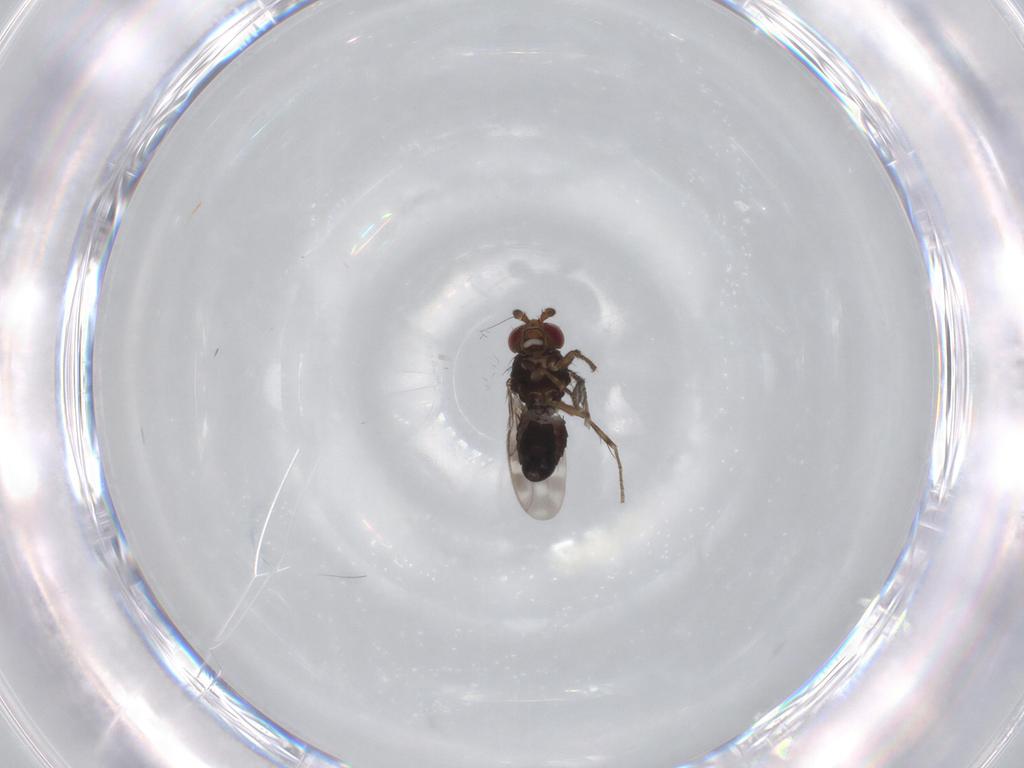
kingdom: Animalia
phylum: Arthropoda
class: Insecta
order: Diptera
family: Sphaeroceridae
